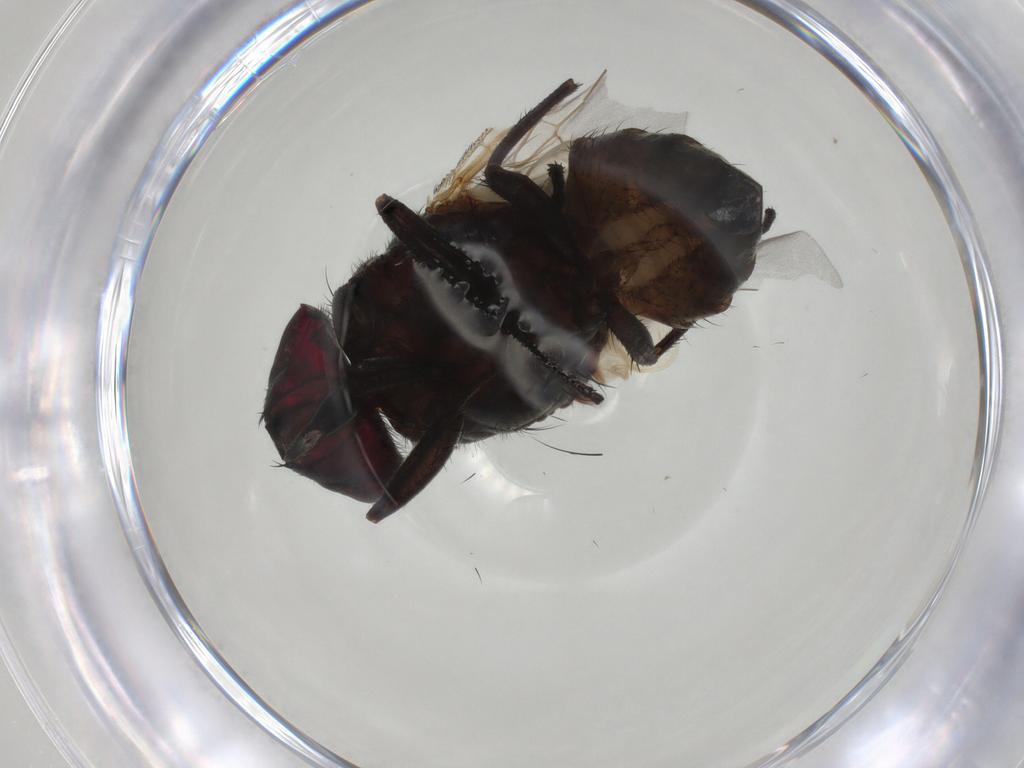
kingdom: Animalia
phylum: Arthropoda
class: Insecta
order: Diptera
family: Muscidae
